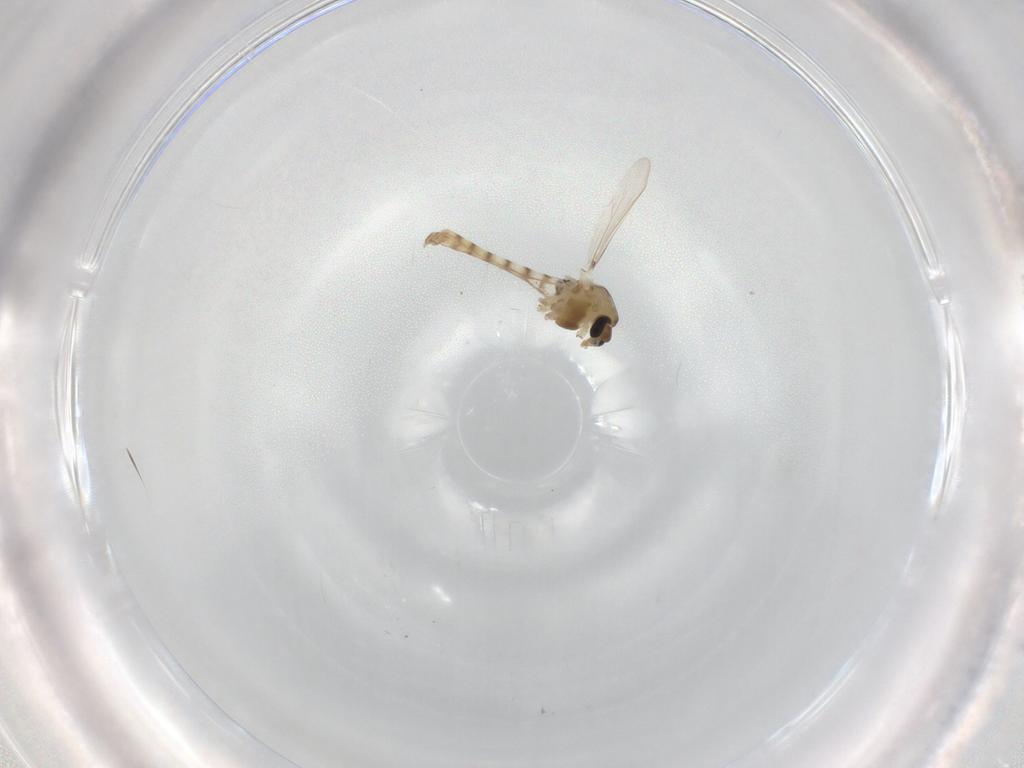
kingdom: Animalia
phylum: Arthropoda
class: Insecta
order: Diptera
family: Chironomidae
